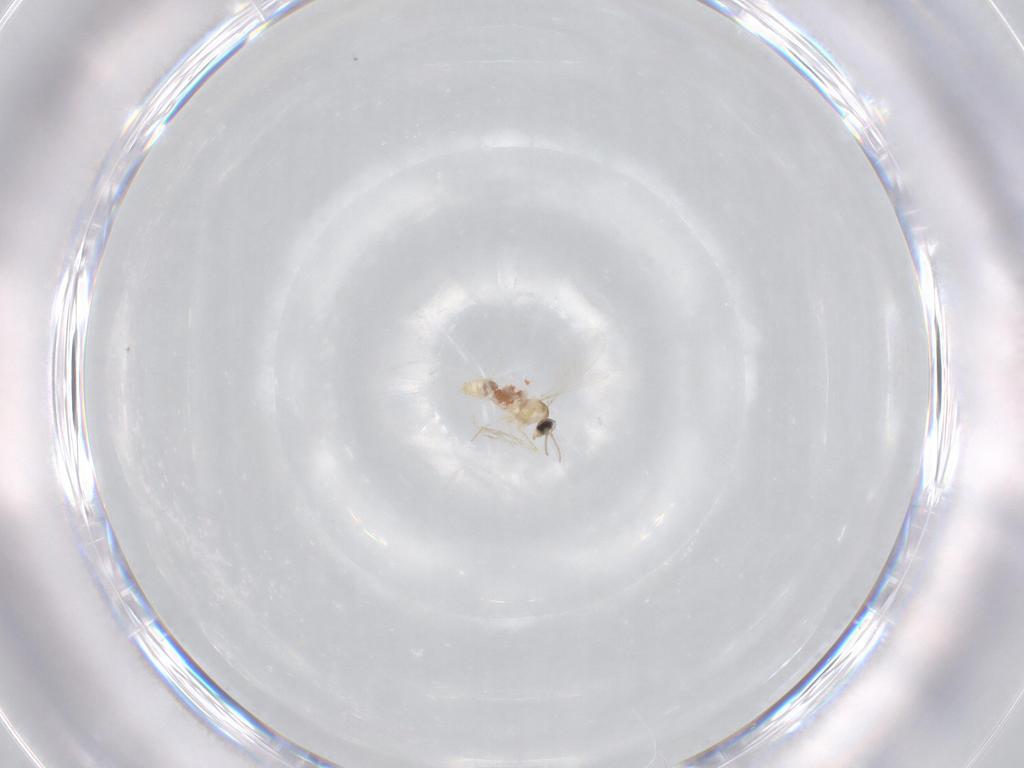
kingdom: Animalia
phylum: Arthropoda
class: Insecta
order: Diptera
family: Cecidomyiidae
